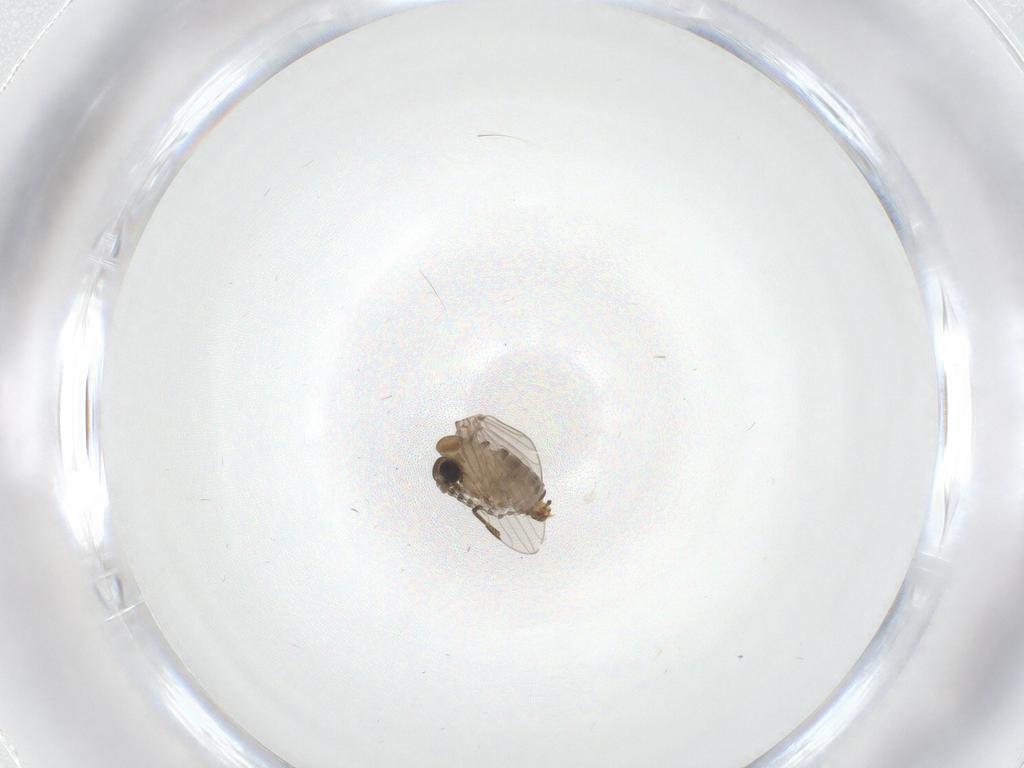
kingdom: Animalia
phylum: Arthropoda
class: Insecta
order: Diptera
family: Psychodidae
